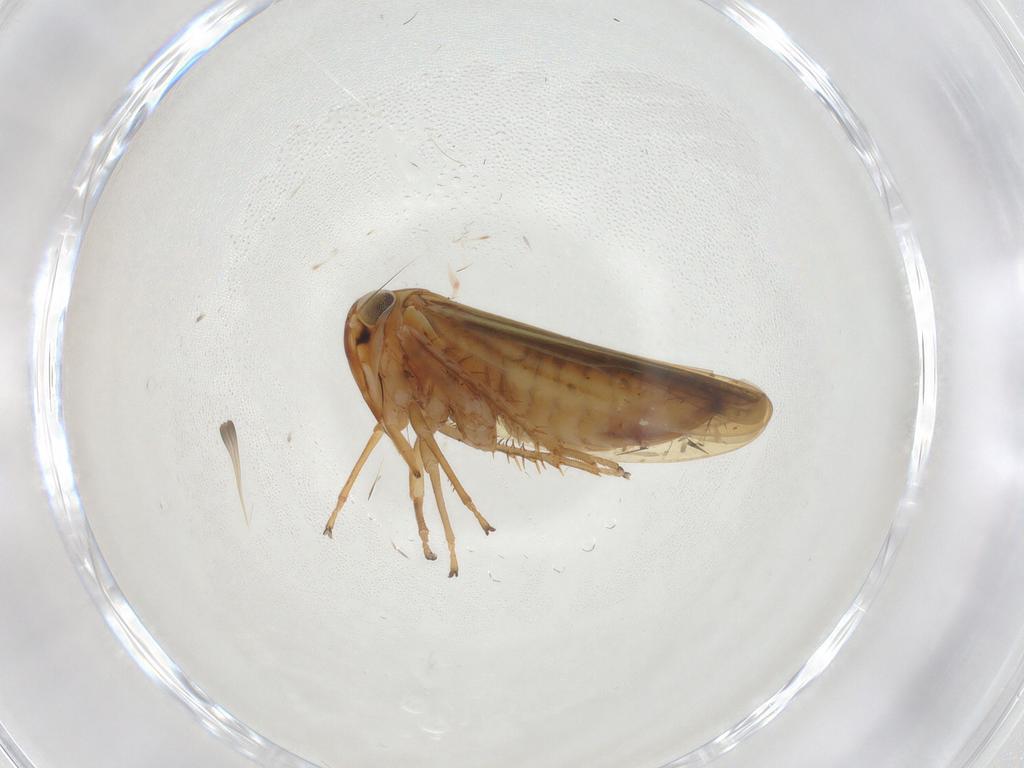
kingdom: Animalia
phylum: Arthropoda
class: Insecta
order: Hemiptera
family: Cicadellidae
